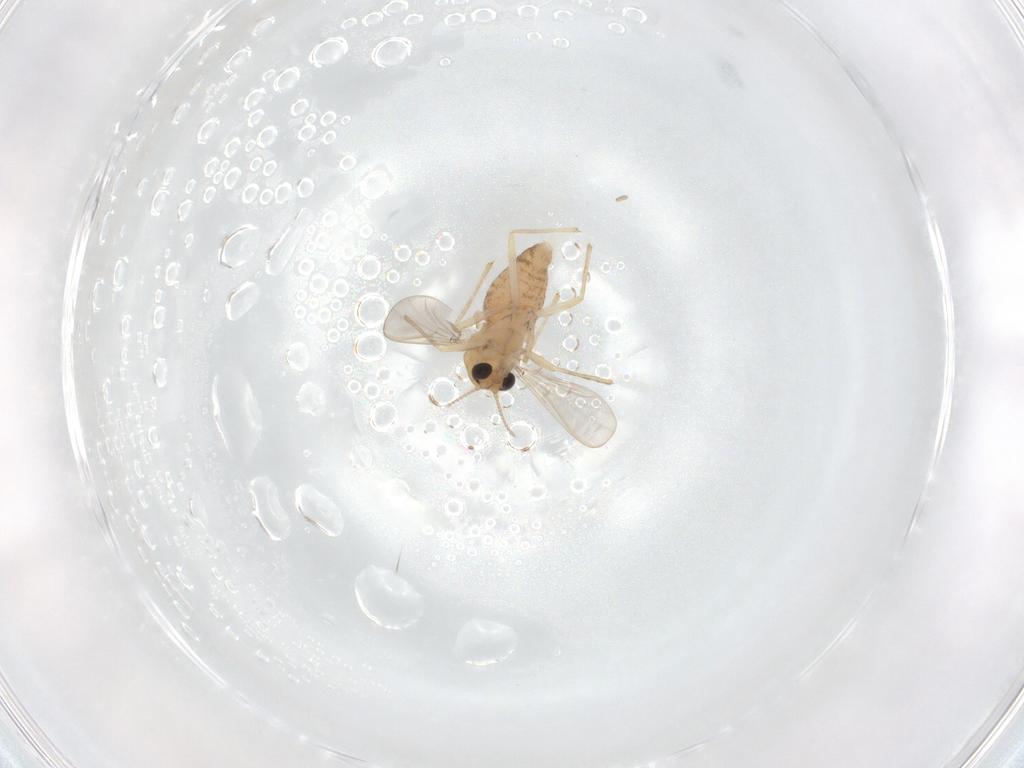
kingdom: Animalia
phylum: Arthropoda
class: Insecta
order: Diptera
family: Chironomidae
